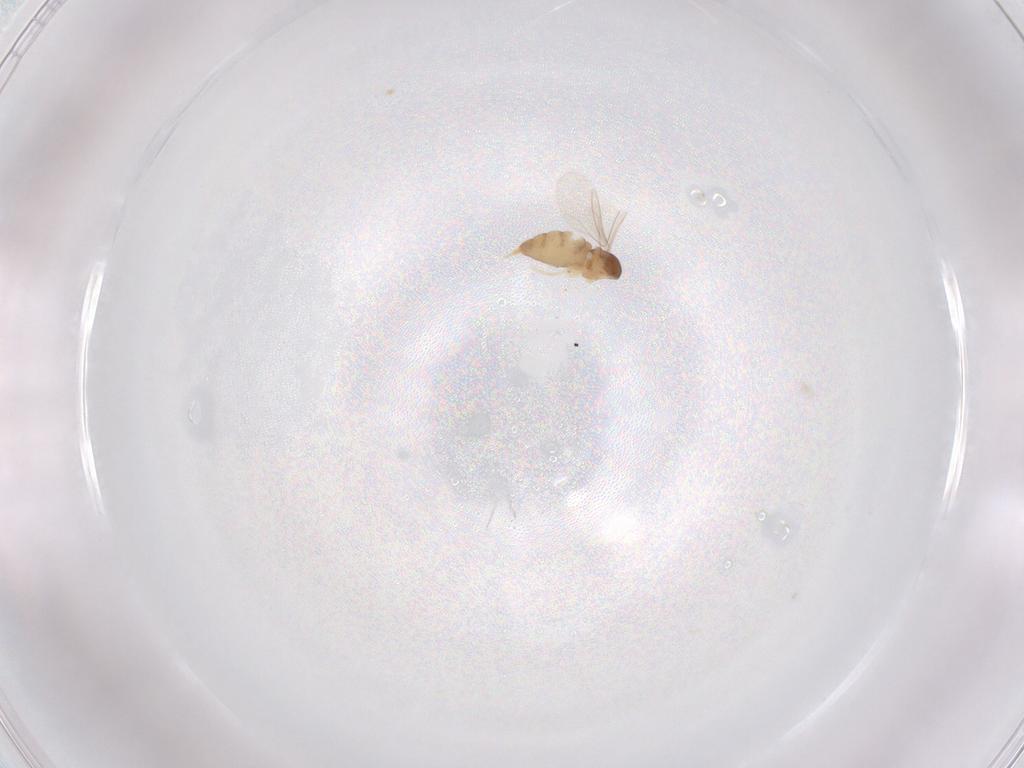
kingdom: Animalia
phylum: Arthropoda
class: Insecta
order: Diptera
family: Cecidomyiidae
